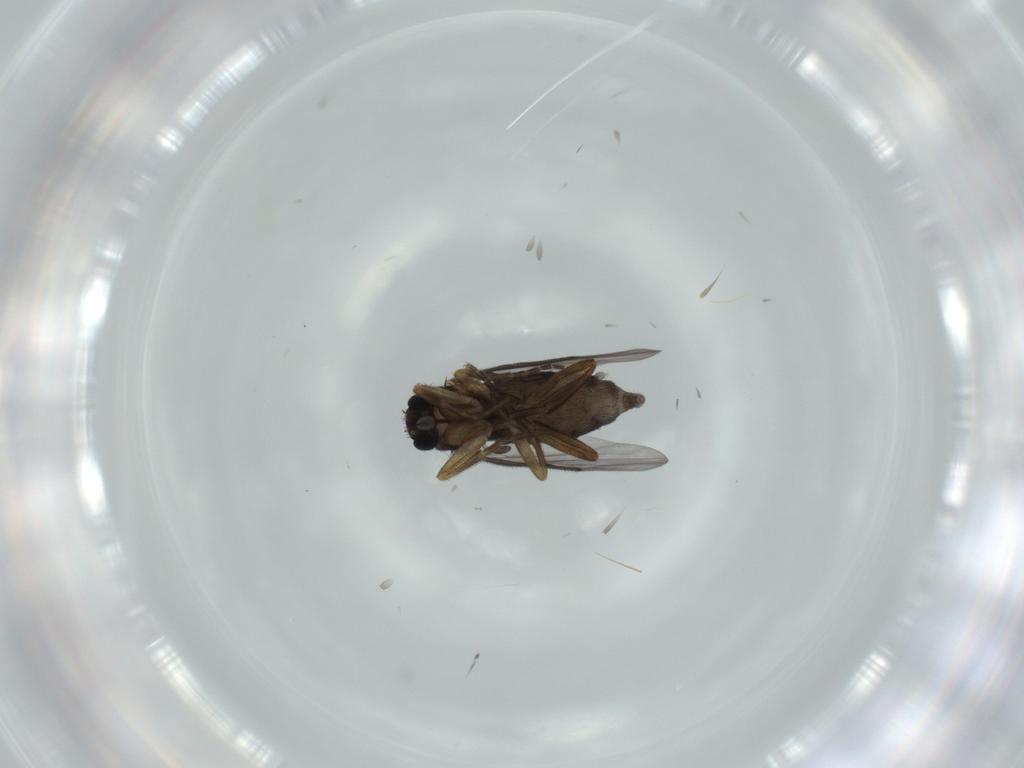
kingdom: Animalia
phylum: Arthropoda
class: Insecta
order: Diptera
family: Phoridae
